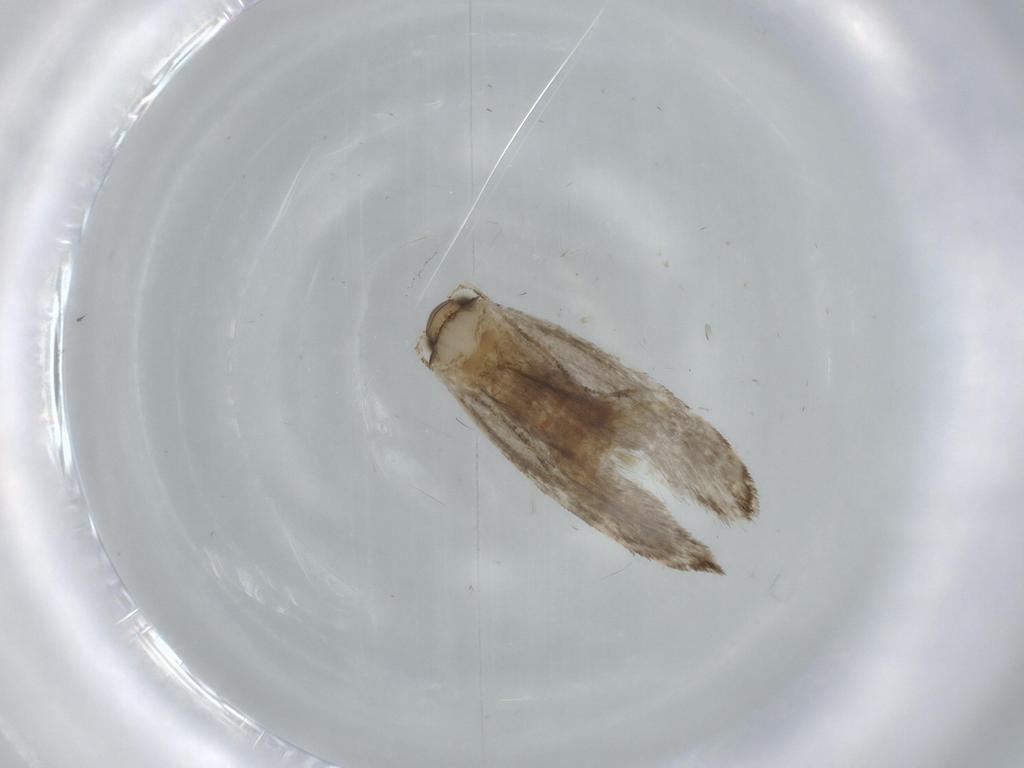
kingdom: Animalia
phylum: Arthropoda
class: Insecta
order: Lepidoptera
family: Tineidae
